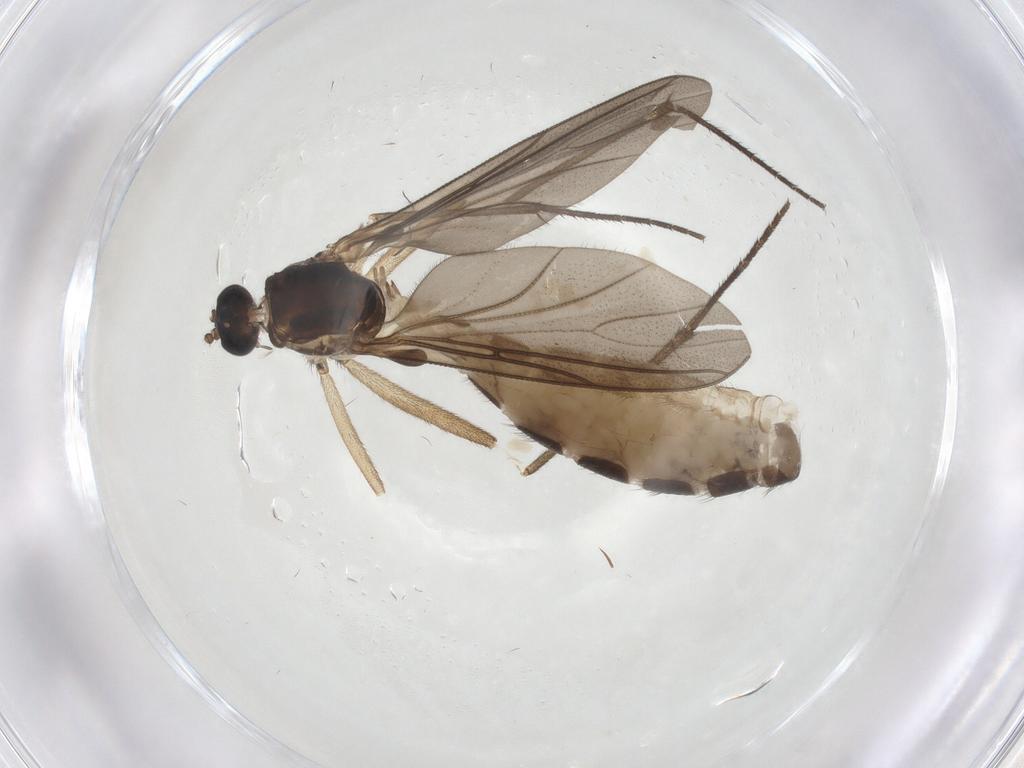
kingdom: Animalia
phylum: Arthropoda
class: Insecta
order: Diptera
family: Sciaridae
